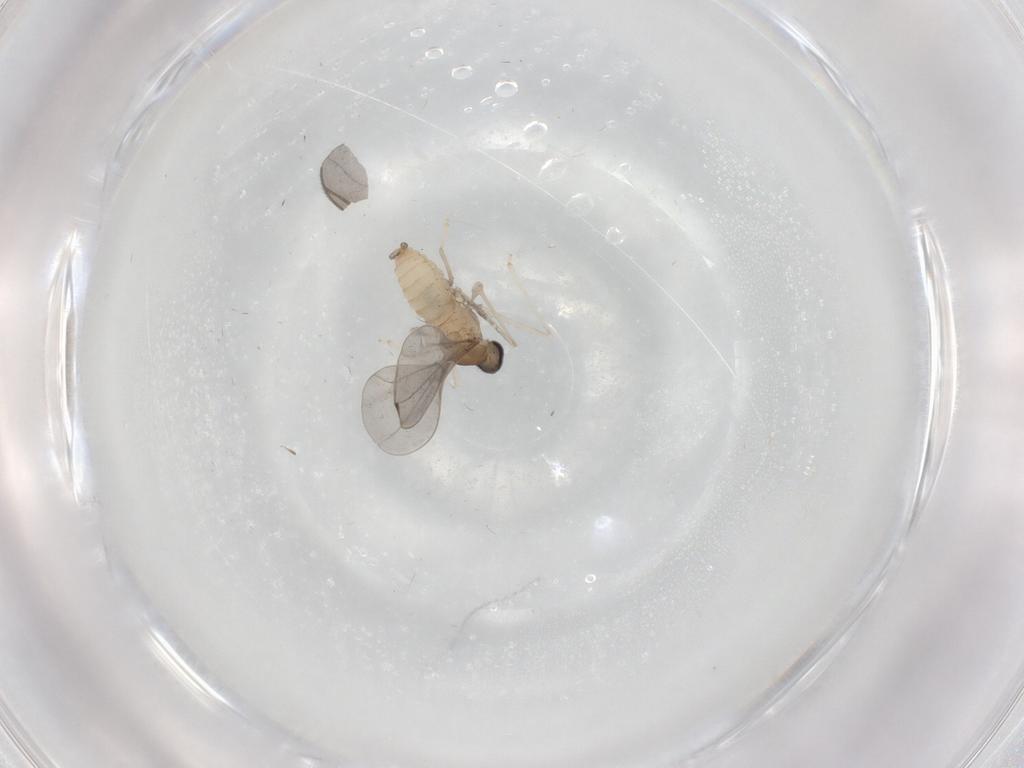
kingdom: Animalia
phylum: Arthropoda
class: Insecta
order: Diptera
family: Cecidomyiidae
